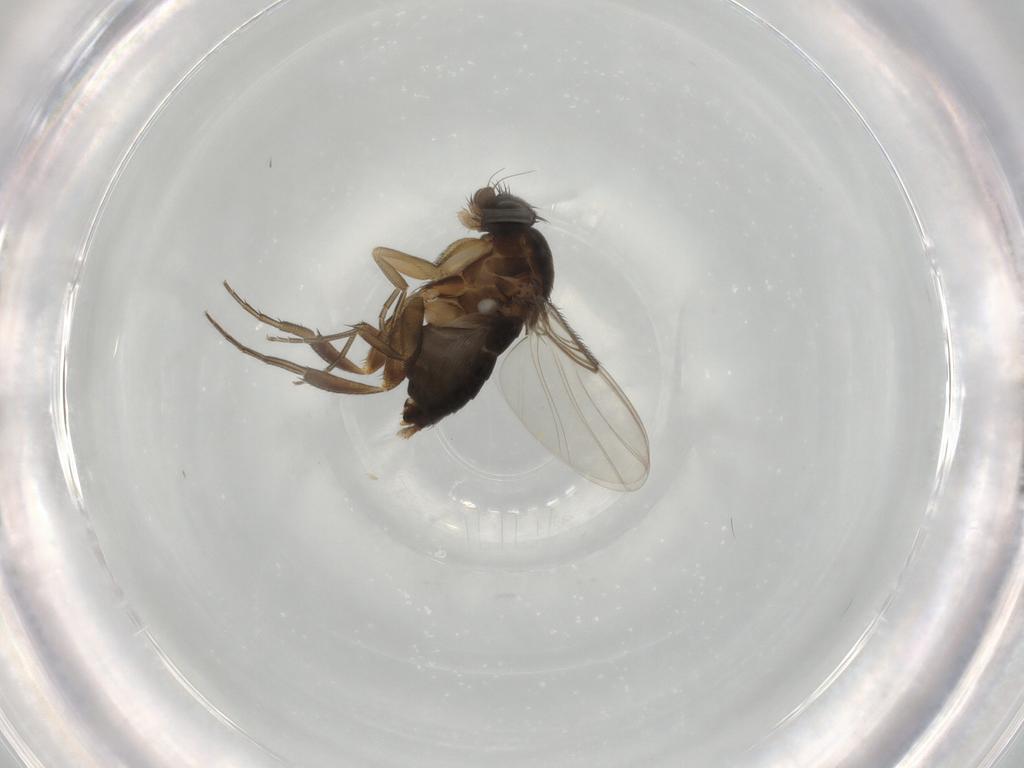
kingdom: Animalia
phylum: Arthropoda
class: Insecta
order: Diptera
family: Phoridae
